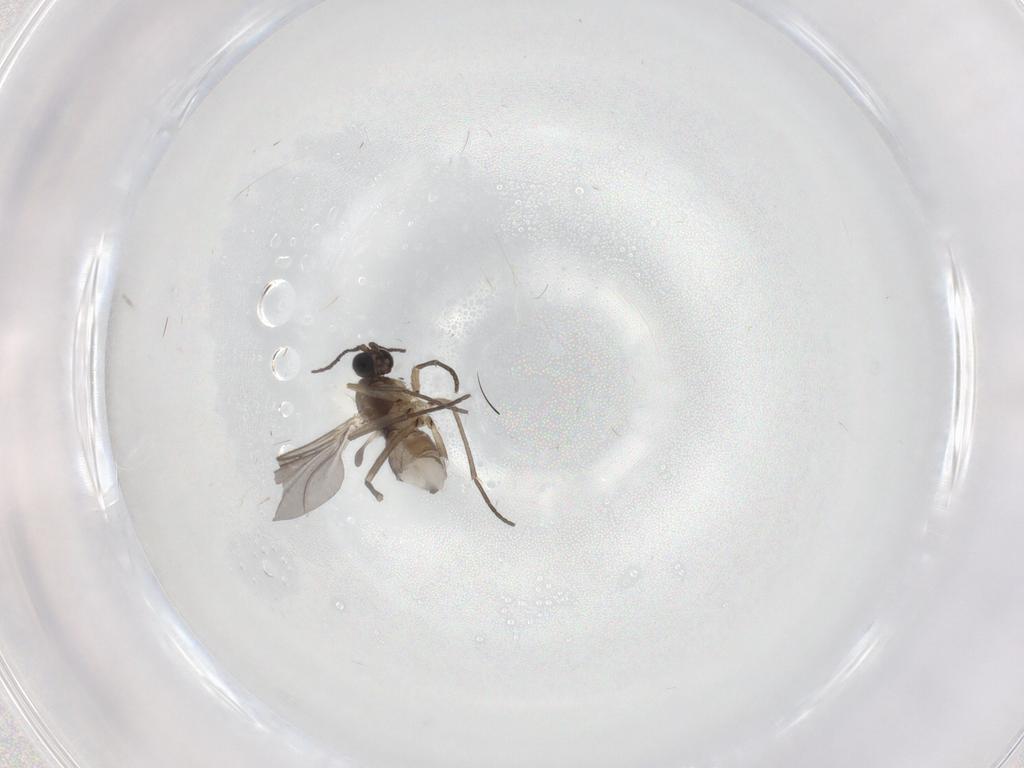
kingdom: Animalia
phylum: Arthropoda
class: Insecta
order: Diptera
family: Sciaridae
